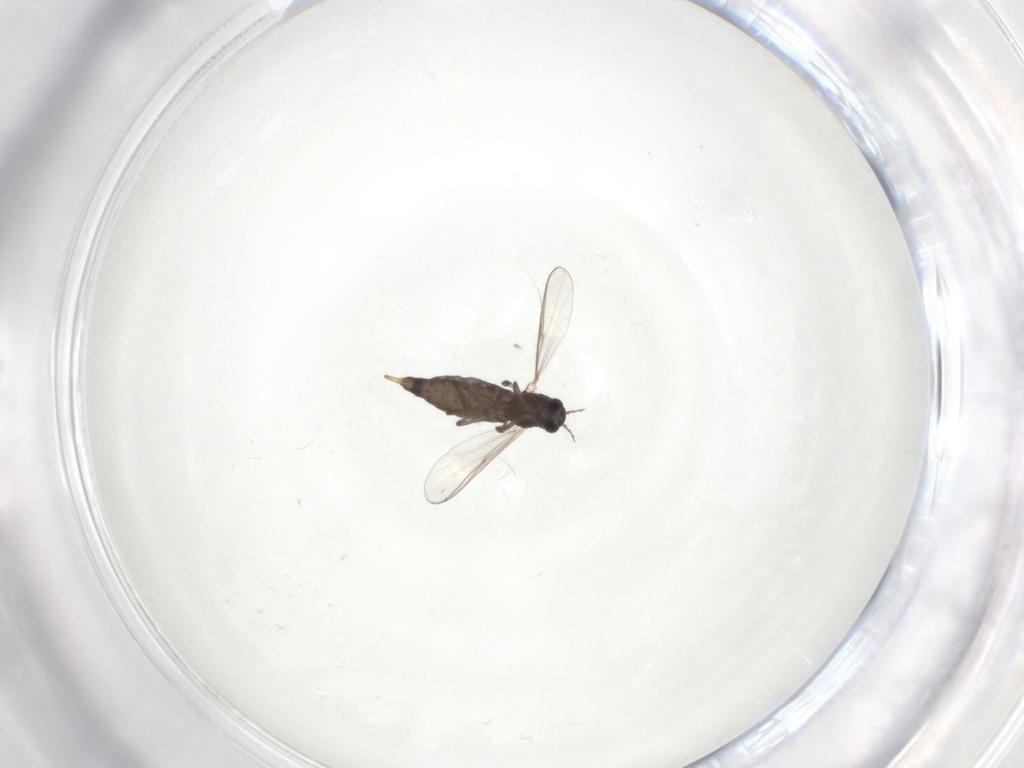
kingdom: Animalia
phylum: Arthropoda
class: Insecta
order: Diptera
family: Chironomidae
